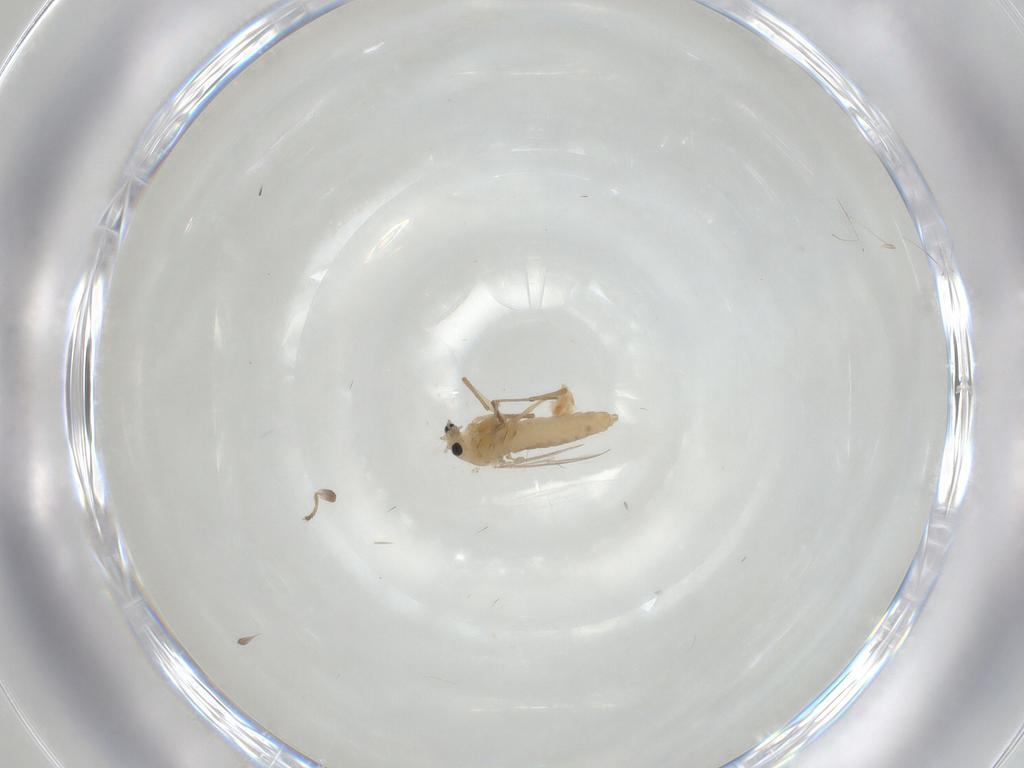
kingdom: Animalia
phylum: Arthropoda
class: Insecta
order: Diptera
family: Chironomidae
